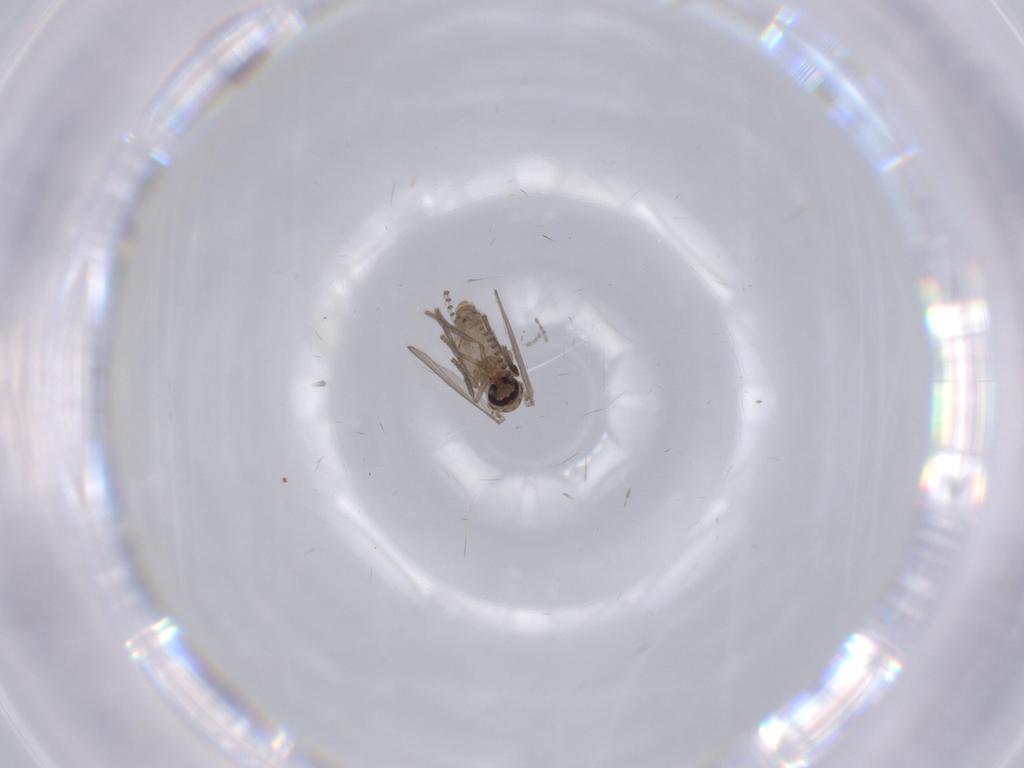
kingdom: Animalia
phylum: Arthropoda
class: Insecta
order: Diptera
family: Psychodidae
